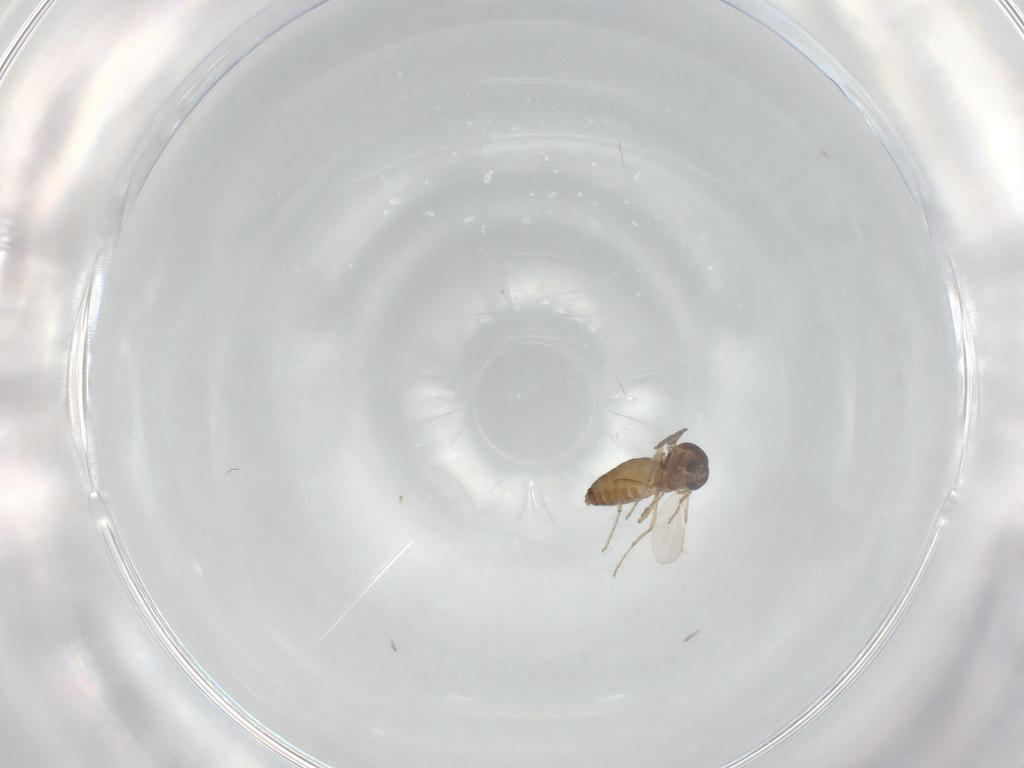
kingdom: Animalia
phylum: Arthropoda
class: Insecta
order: Diptera
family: Ceratopogonidae
